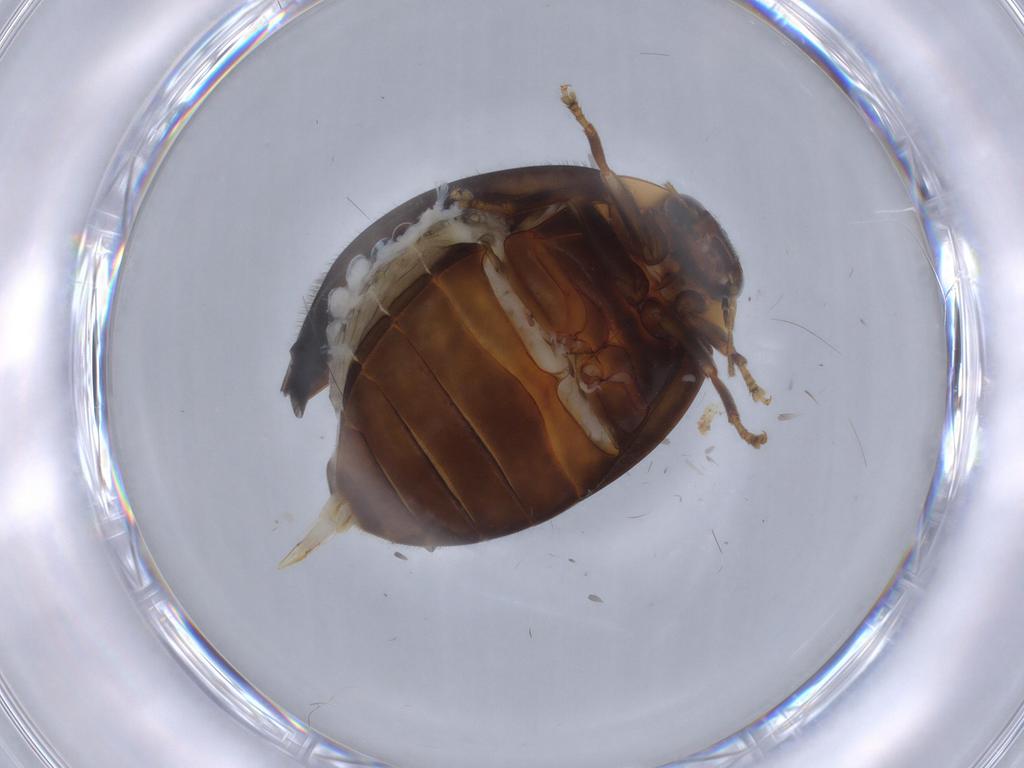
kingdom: Animalia
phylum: Arthropoda
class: Insecta
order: Coleoptera
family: Scirtidae
